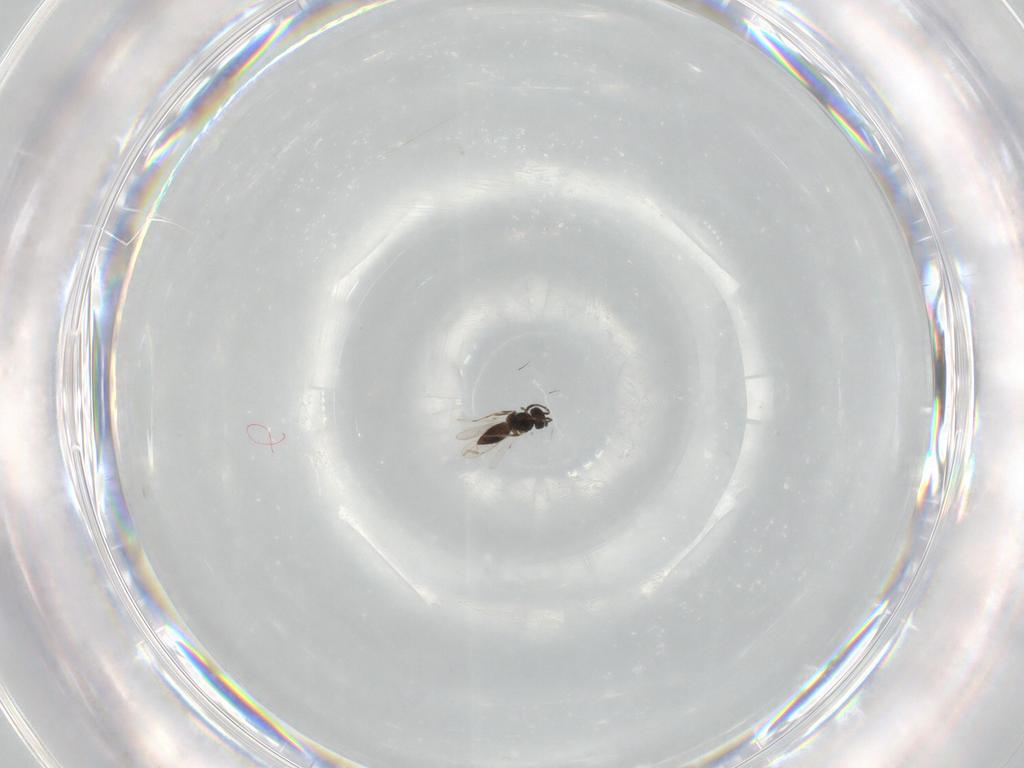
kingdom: Animalia
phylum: Arthropoda
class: Insecta
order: Hymenoptera
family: Scelionidae
